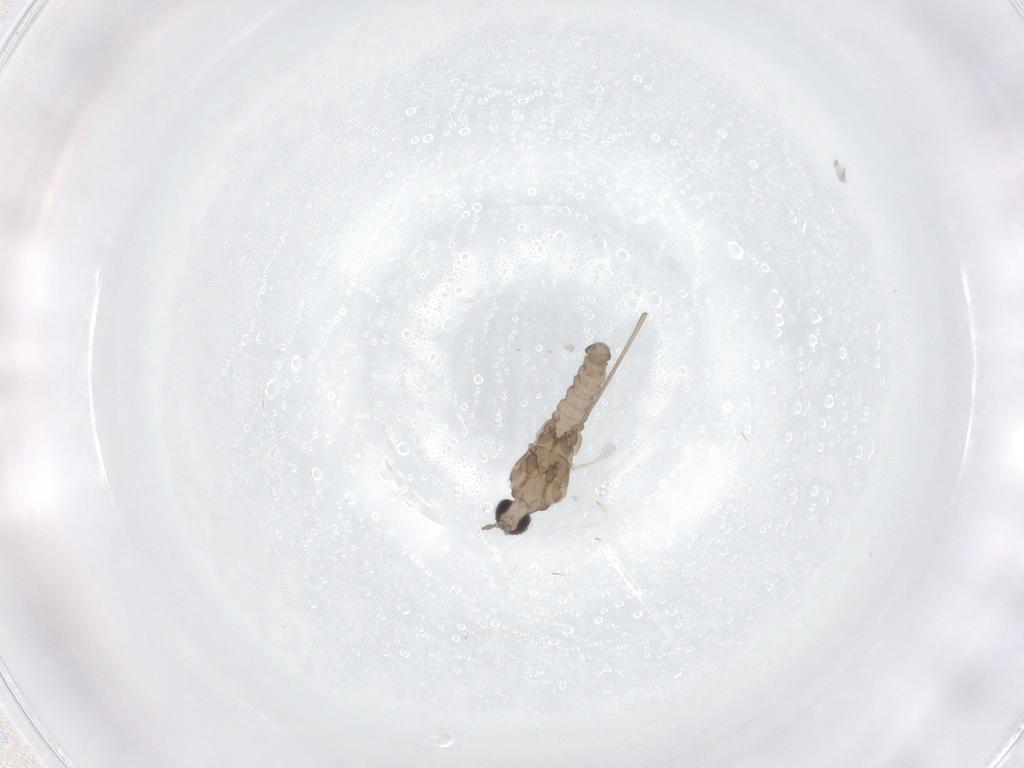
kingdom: Animalia
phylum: Arthropoda
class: Insecta
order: Diptera
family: Cecidomyiidae
